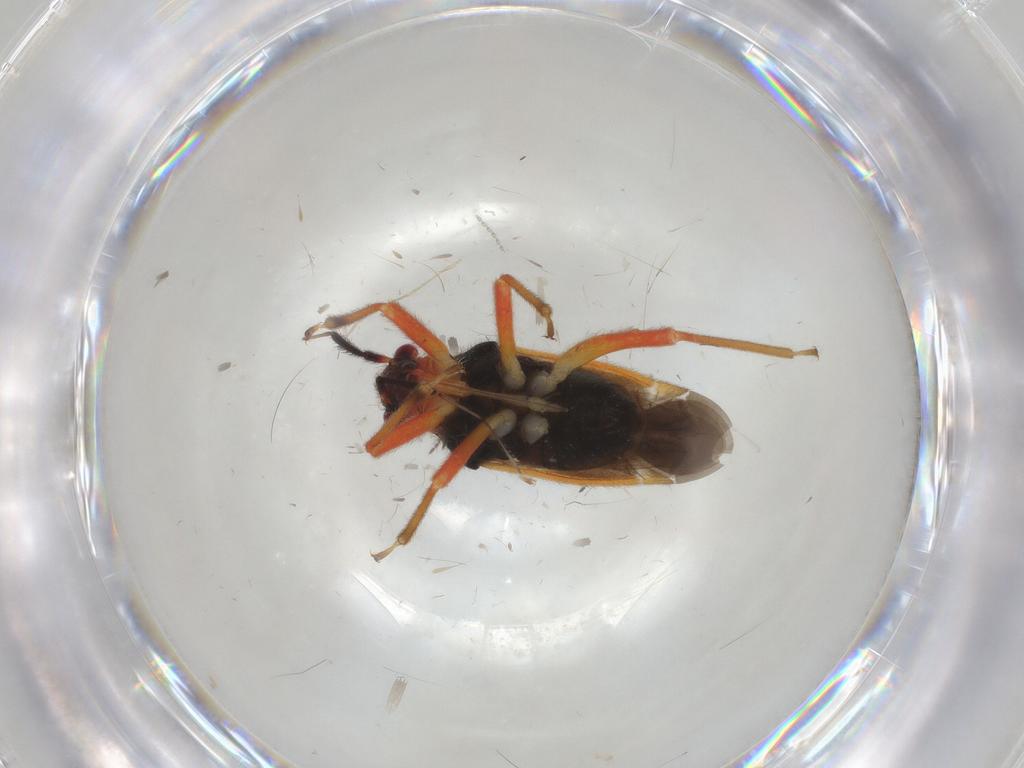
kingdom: Animalia
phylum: Arthropoda
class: Insecta
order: Hemiptera
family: Miridae
